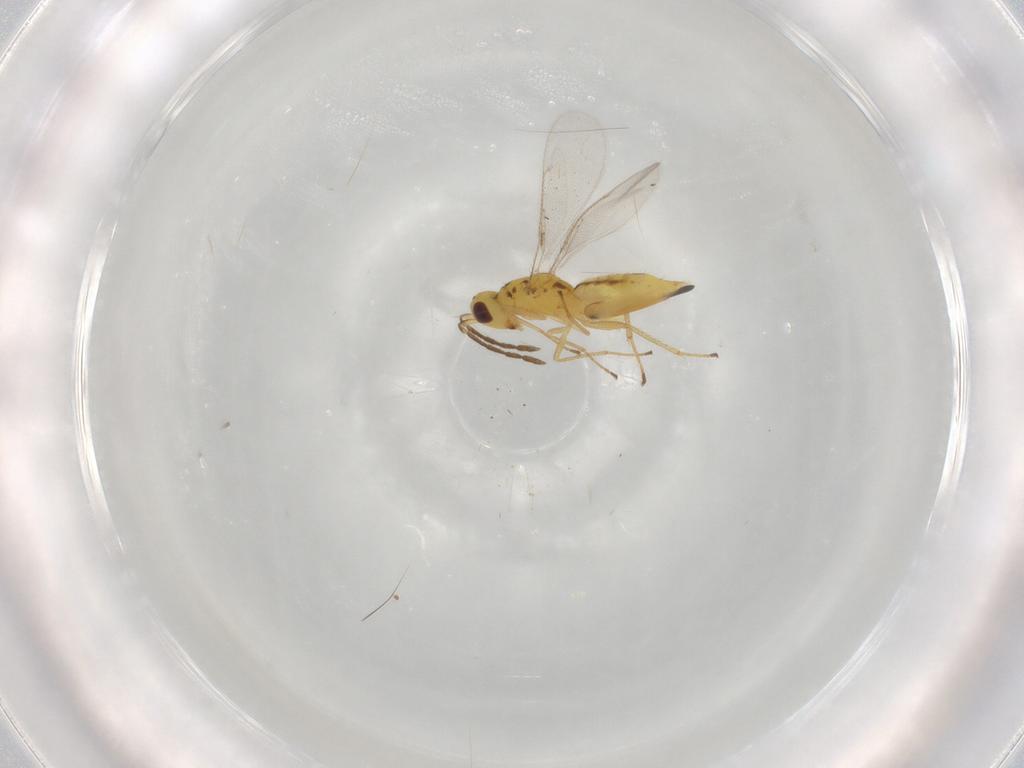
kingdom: Animalia
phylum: Arthropoda
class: Insecta
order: Hymenoptera
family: Eulophidae
